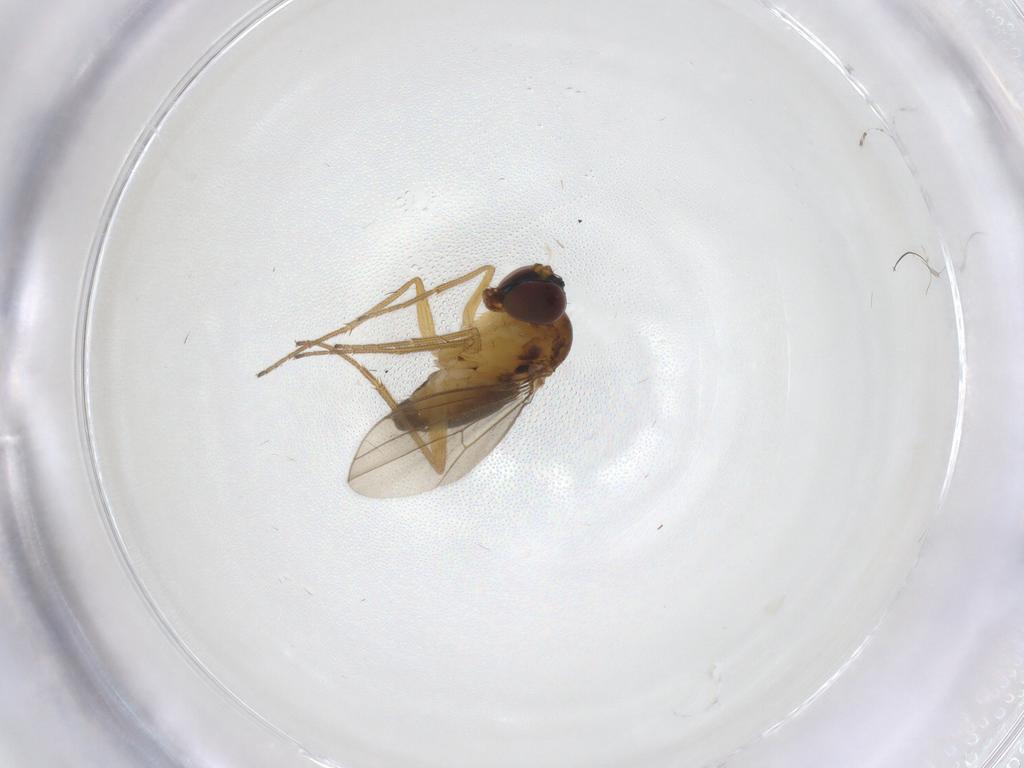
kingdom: Animalia
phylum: Arthropoda
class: Insecta
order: Diptera
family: Dolichopodidae
